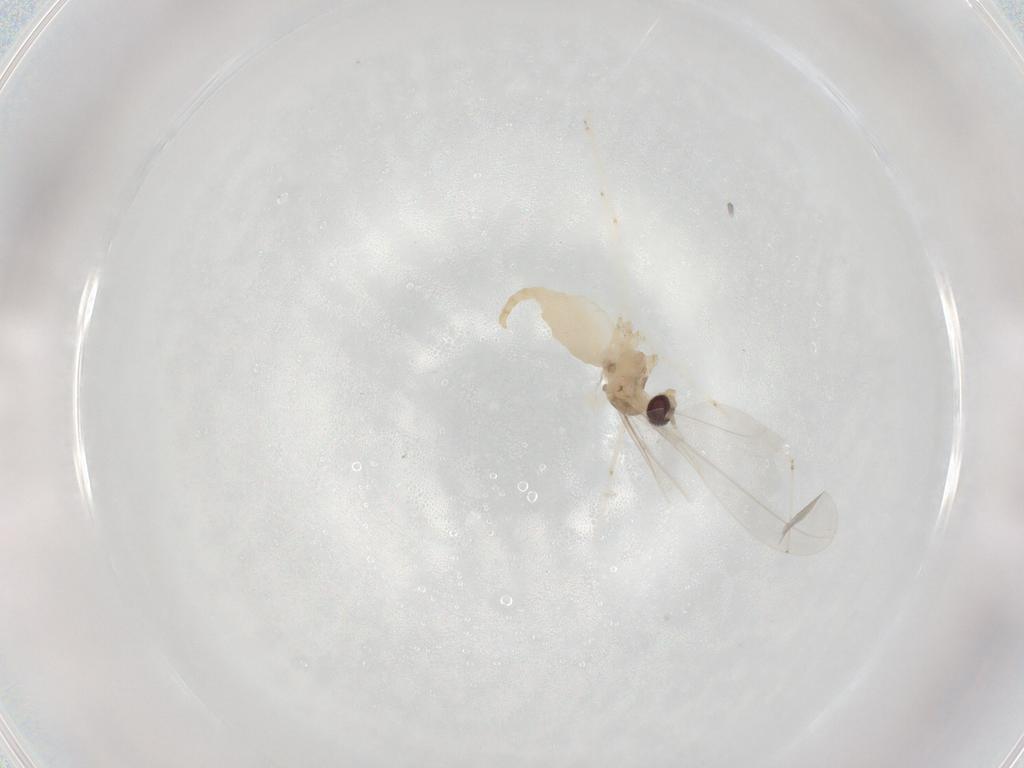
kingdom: Animalia
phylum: Arthropoda
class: Insecta
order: Diptera
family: Cecidomyiidae
